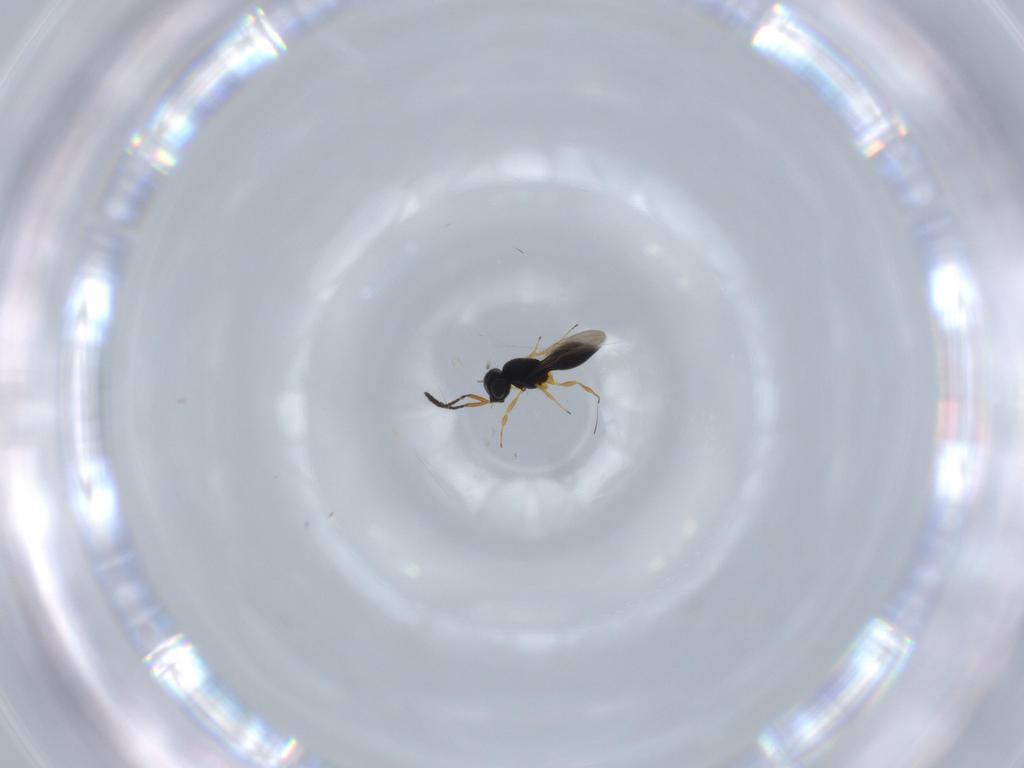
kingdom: Animalia
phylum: Arthropoda
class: Insecta
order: Hymenoptera
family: Scelionidae
